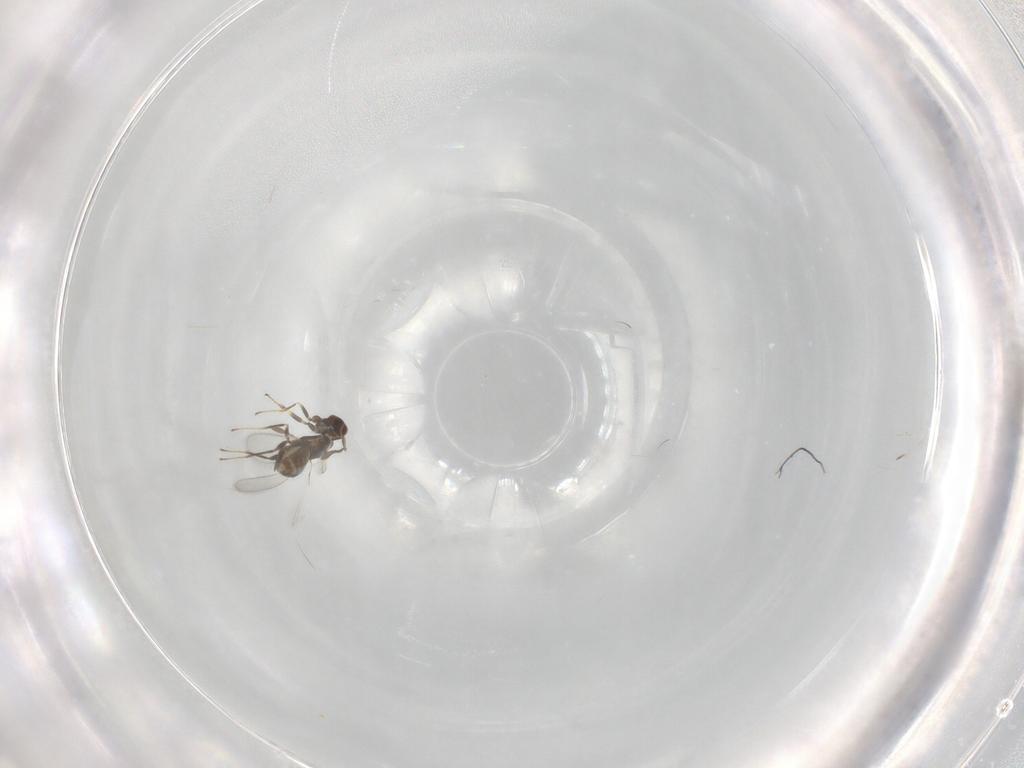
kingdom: Animalia
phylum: Arthropoda
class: Insecta
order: Hymenoptera
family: Mymaridae
